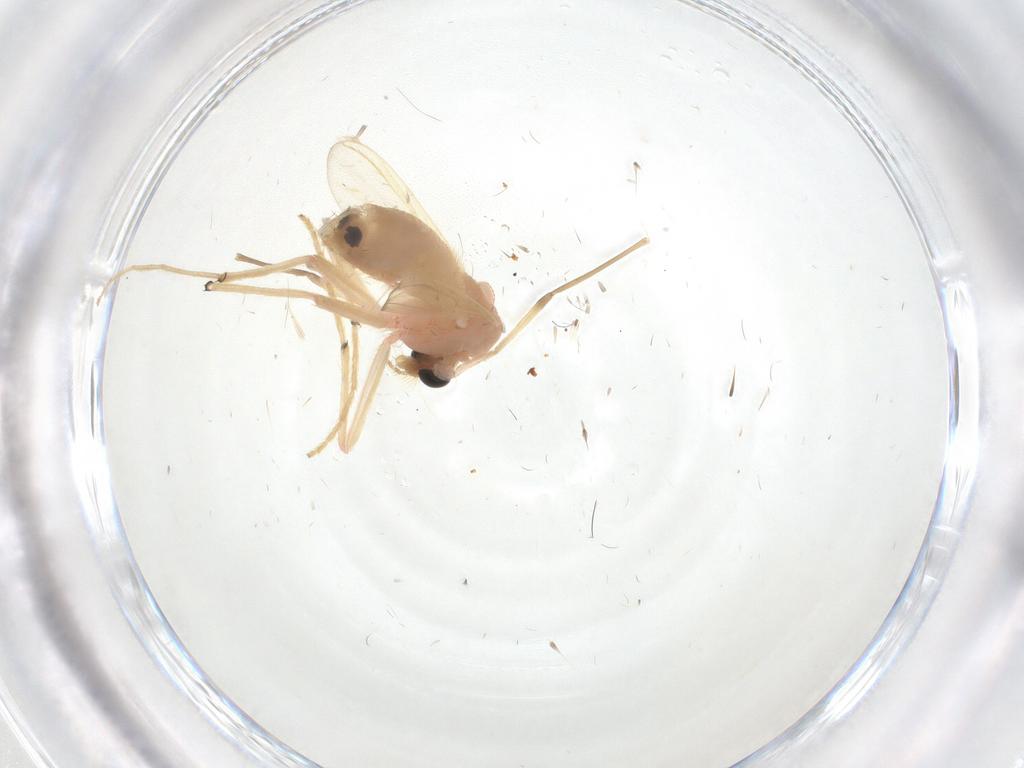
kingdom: Animalia
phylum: Arthropoda
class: Insecta
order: Diptera
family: Chironomidae
